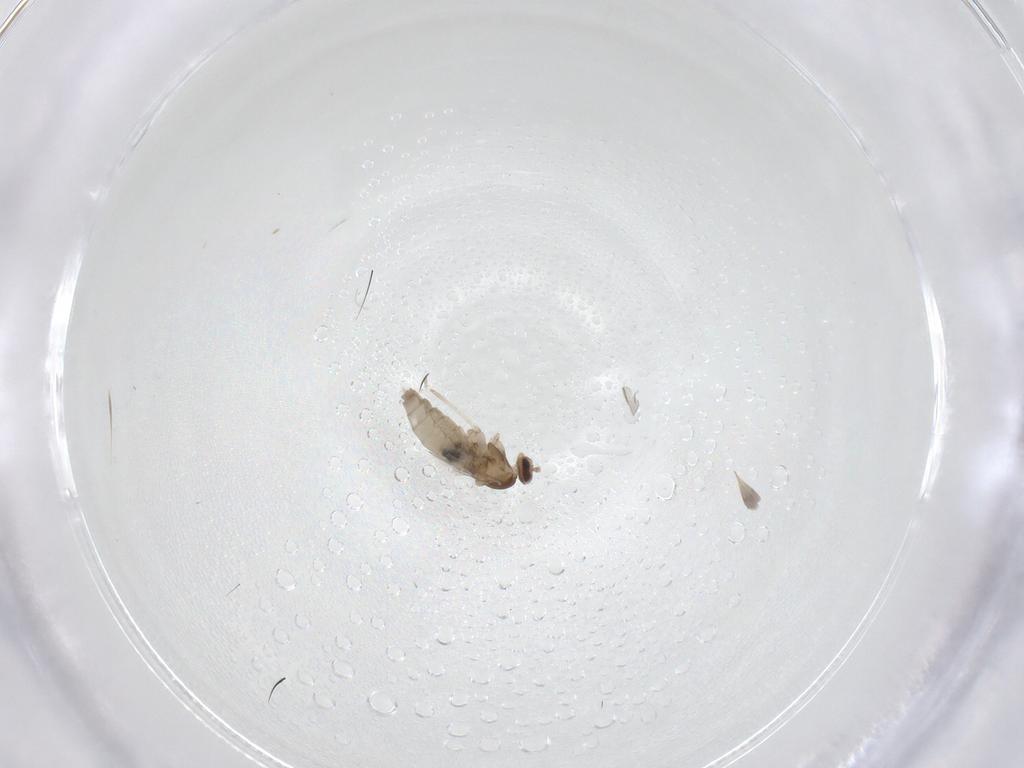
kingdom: Animalia
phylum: Arthropoda
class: Insecta
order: Diptera
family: Cecidomyiidae
